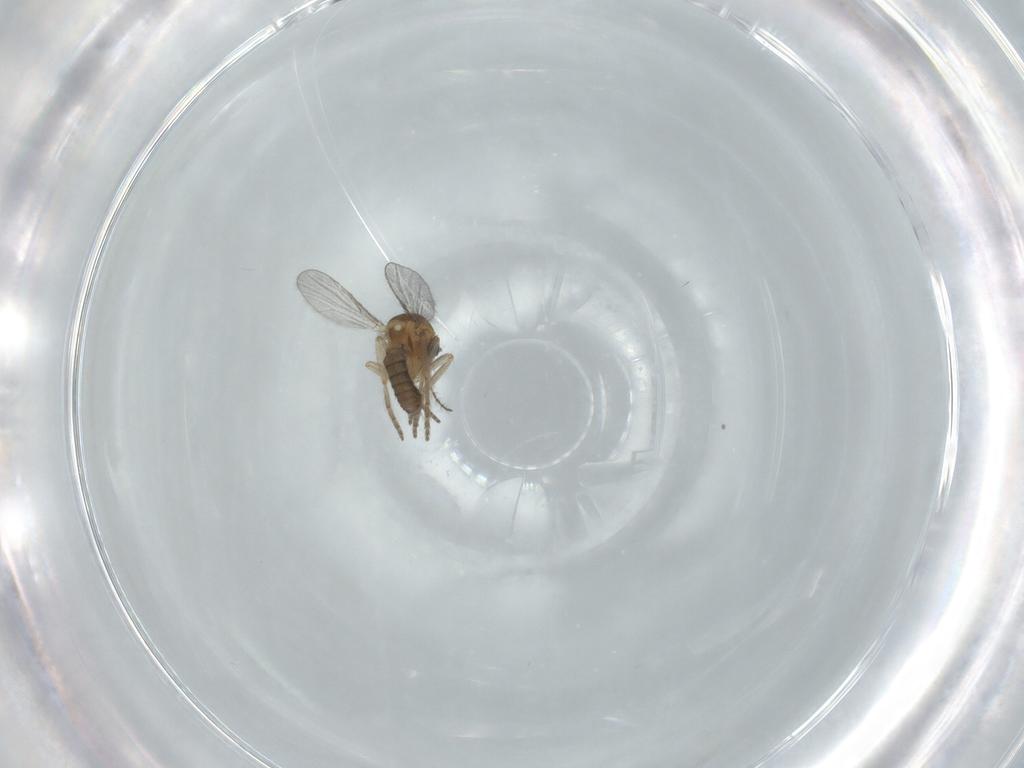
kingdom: Animalia
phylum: Arthropoda
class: Insecta
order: Diptera
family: Ceratopogonidae
